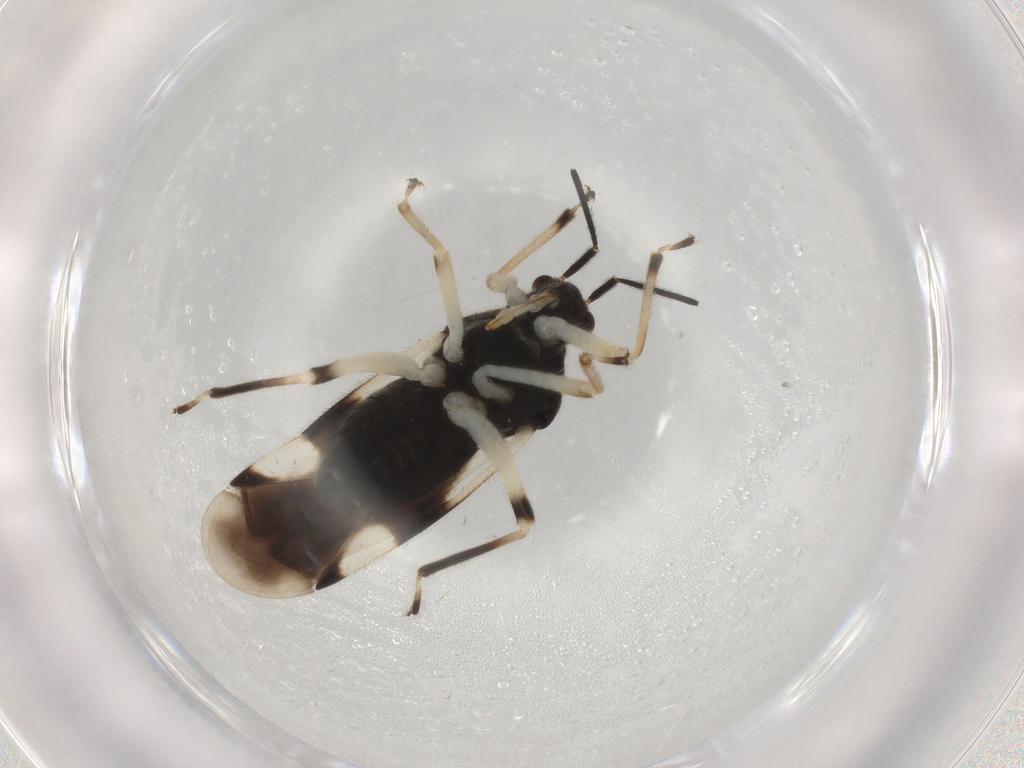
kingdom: Animalia
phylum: Arthropoda
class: Insecta
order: Hemiptera
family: Miridae
